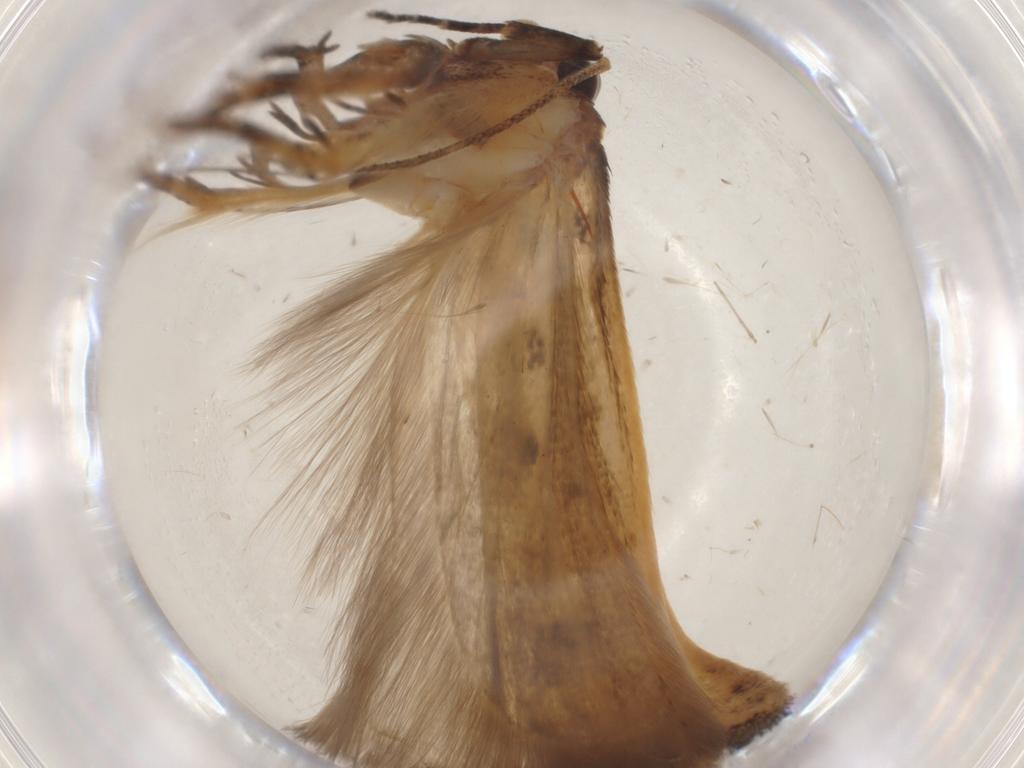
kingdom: Animalia
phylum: Arthropoda
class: Insecta
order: Lepidoptera
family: Gelechiidae
